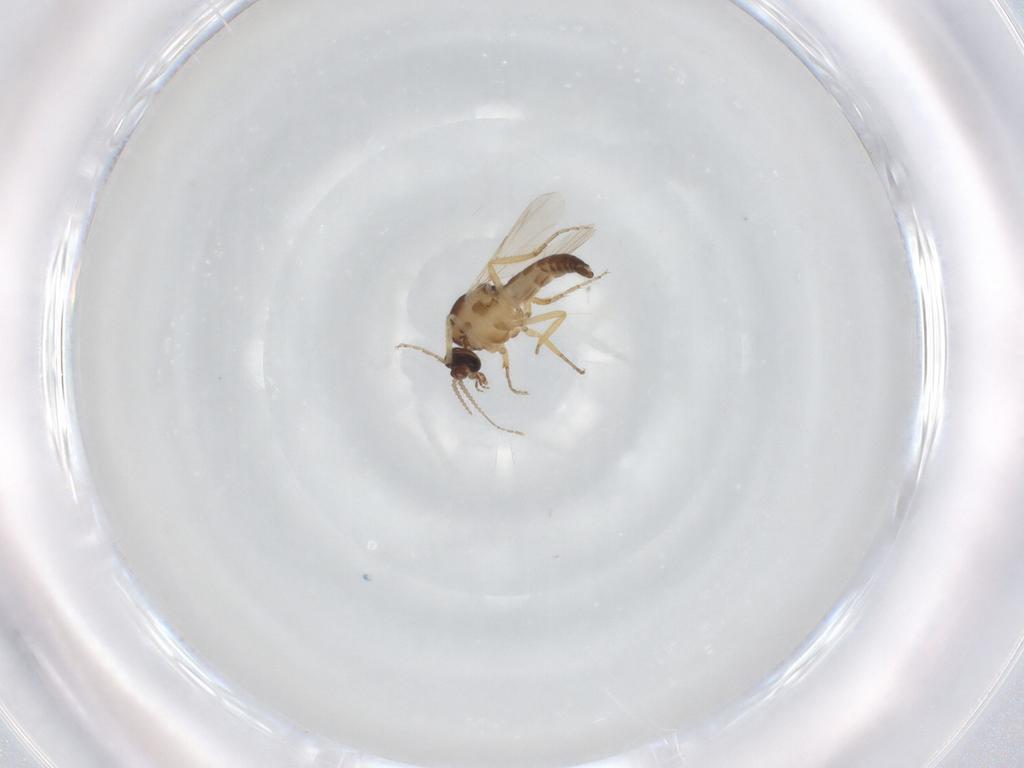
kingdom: Animalia
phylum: Arthropoda
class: Insecta
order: Diptera
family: Ceratopogonidae
